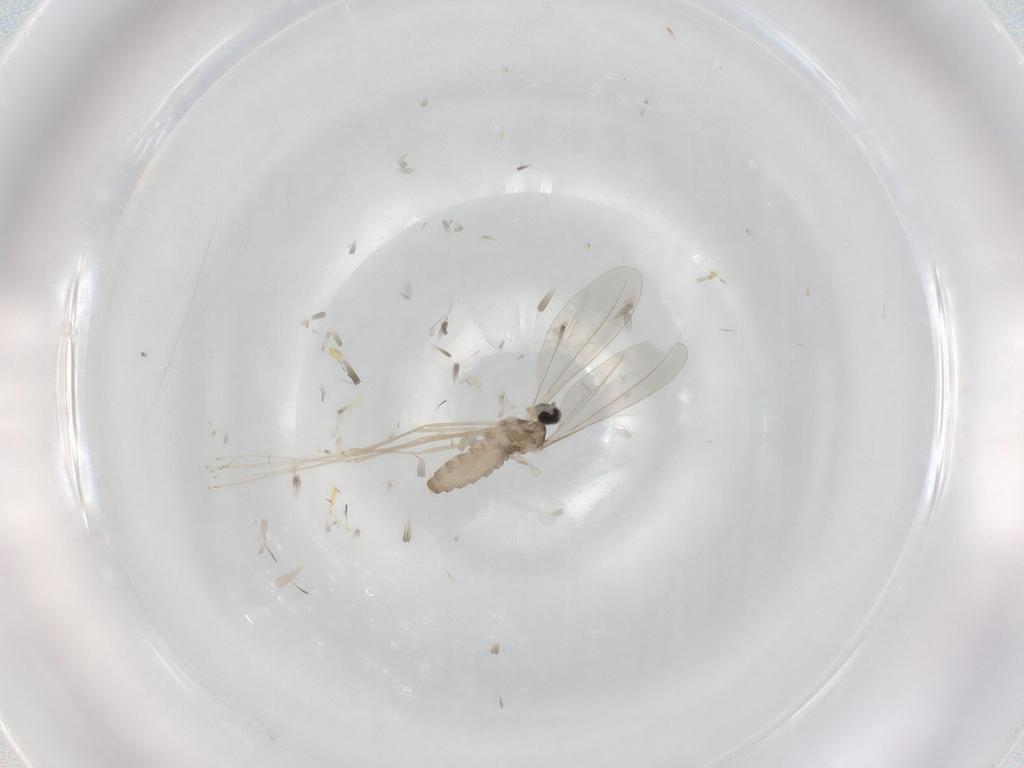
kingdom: Animalia
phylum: Arthropoda
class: Insecta
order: Diptera
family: Cecidomyiidae
